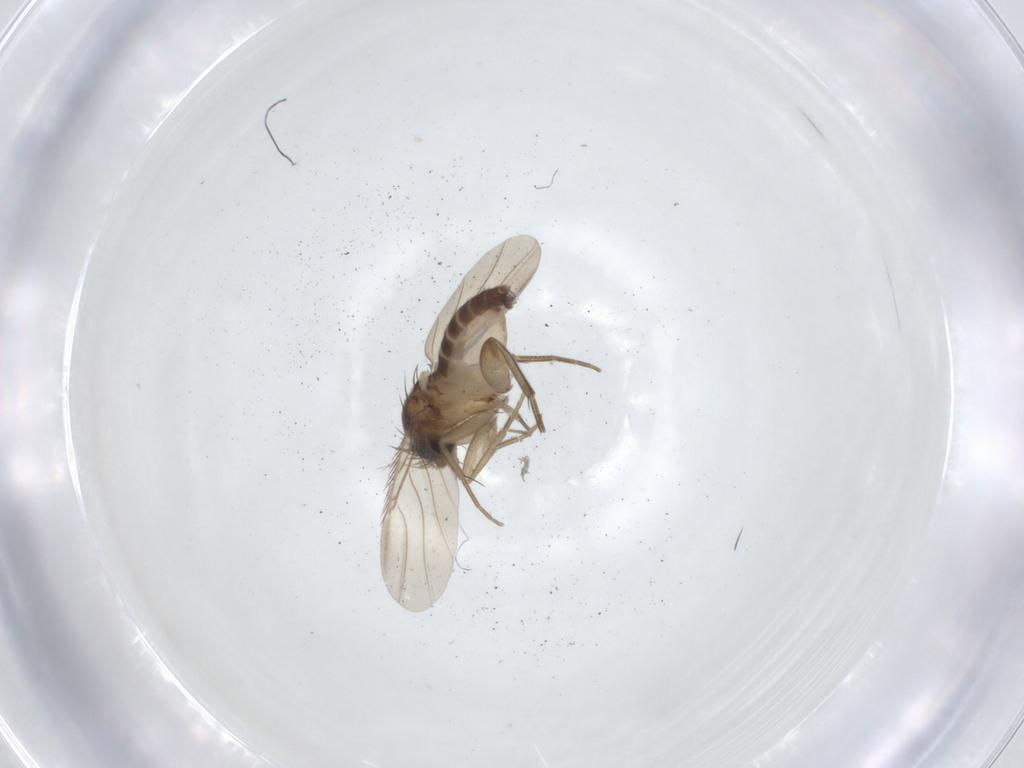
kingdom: Animalia
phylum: Arthropoda
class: Insecta
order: Diptera
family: Phoridae
